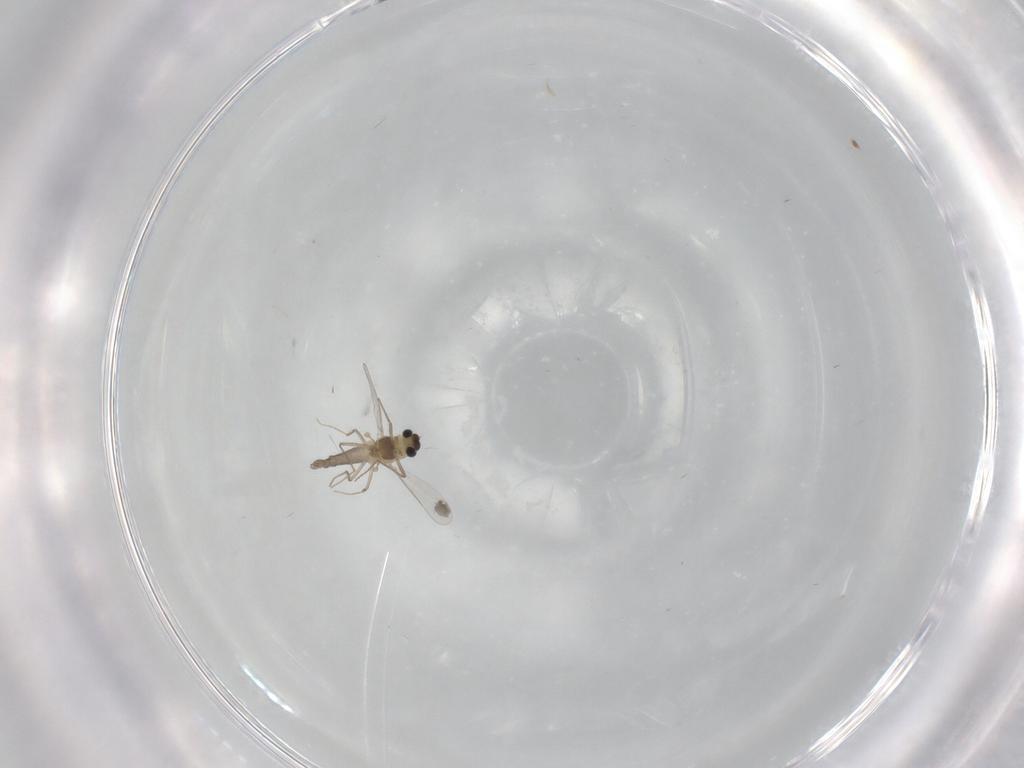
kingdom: Animalia
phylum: Arthropoda
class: Insecta
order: Diptera
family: Chironomidae
